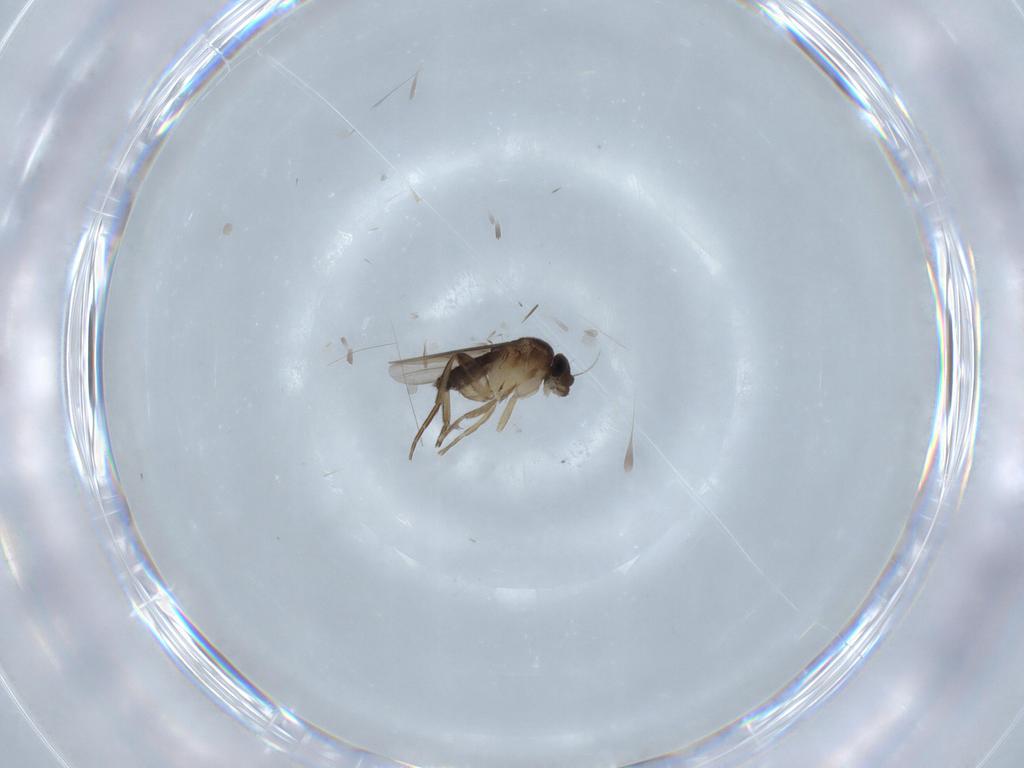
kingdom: Animalia
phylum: Arthropoda
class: Insecta
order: Diptera
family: Phoridae
